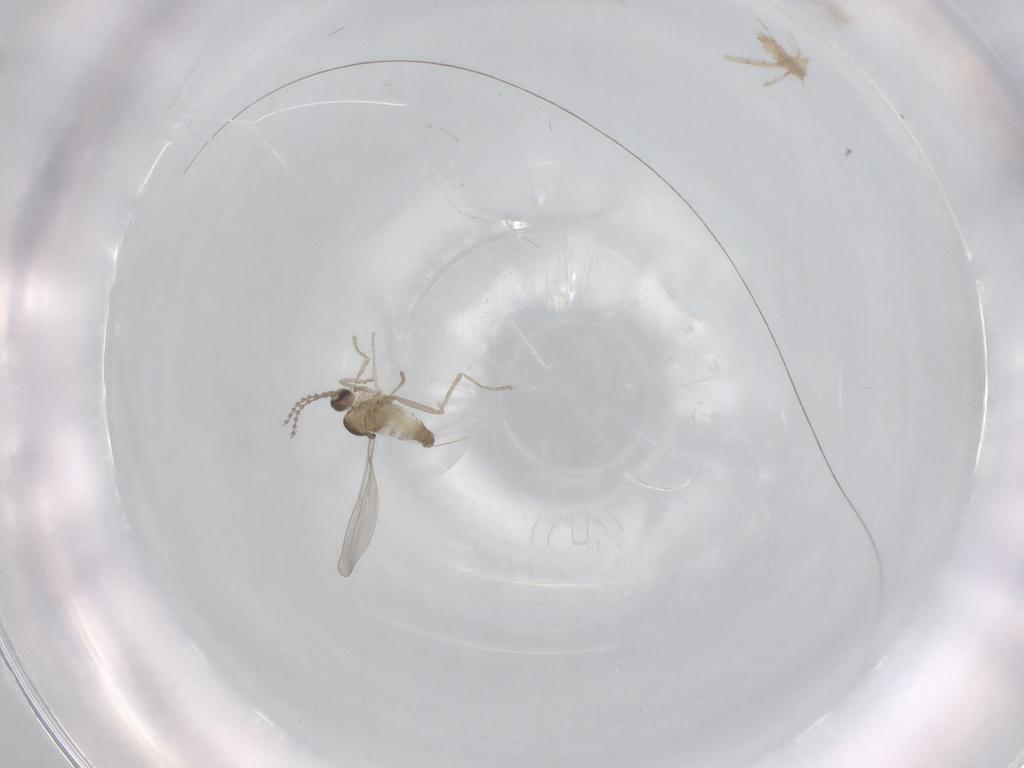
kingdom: Animalia
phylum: Arthropoda
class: Insecta
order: Diptera
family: Cecidomyiidae
